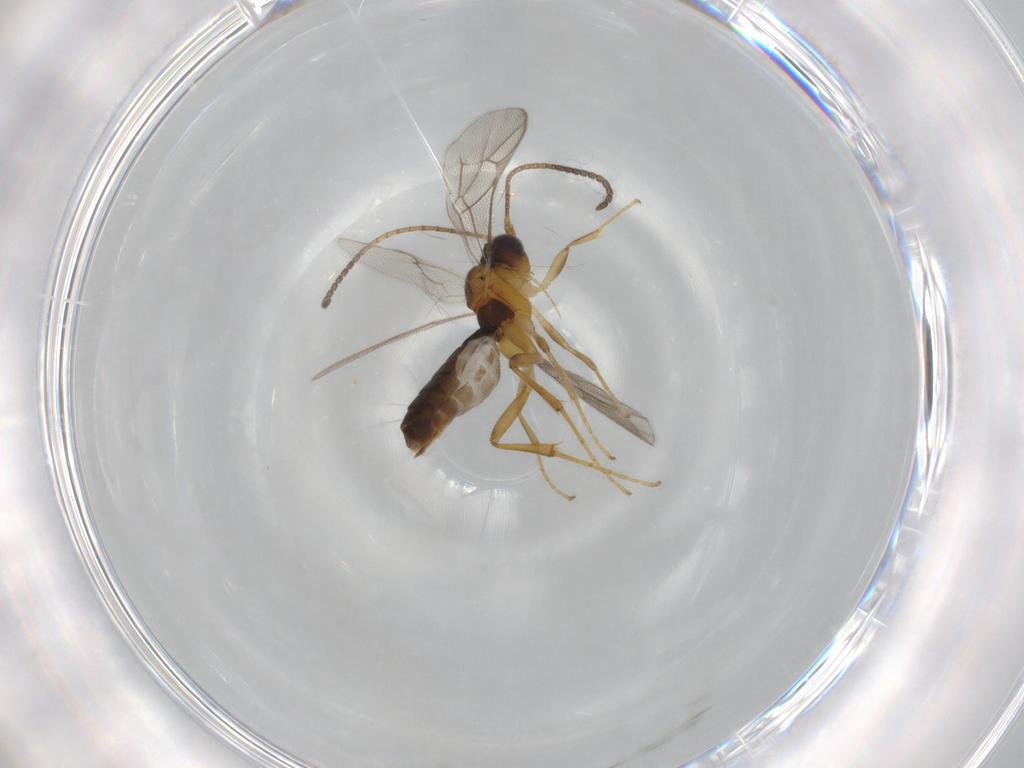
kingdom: Animalia
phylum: Arthropoda
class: Insecta
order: Hymenoptera
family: Ichneumonidae
